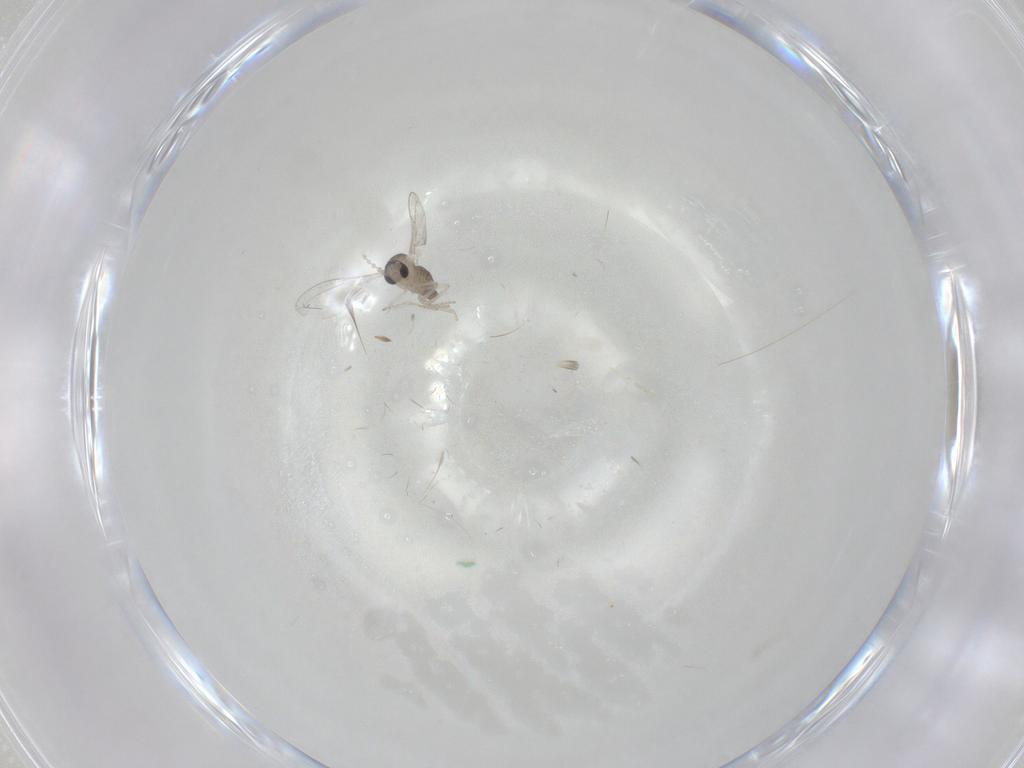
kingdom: Animalia
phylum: Arthropoda
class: Insecta
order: Diptera
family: Cecidomyiidae
